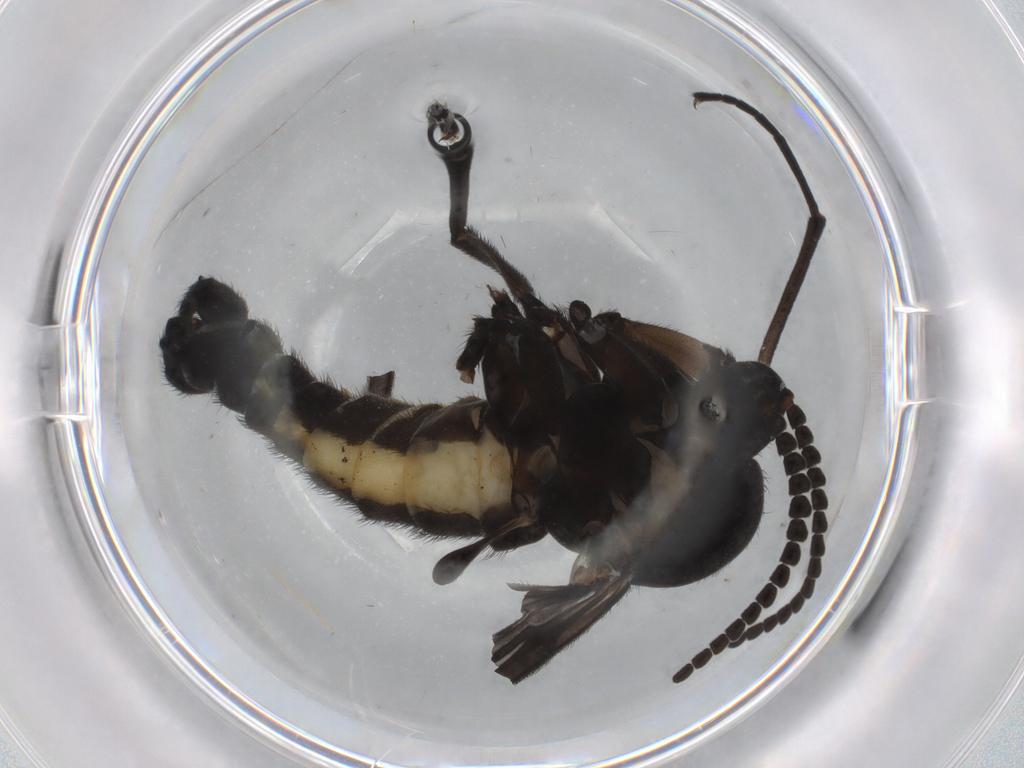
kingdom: Animalia
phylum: Arthropoda
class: Insecta
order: Diptera
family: Sciaridae
